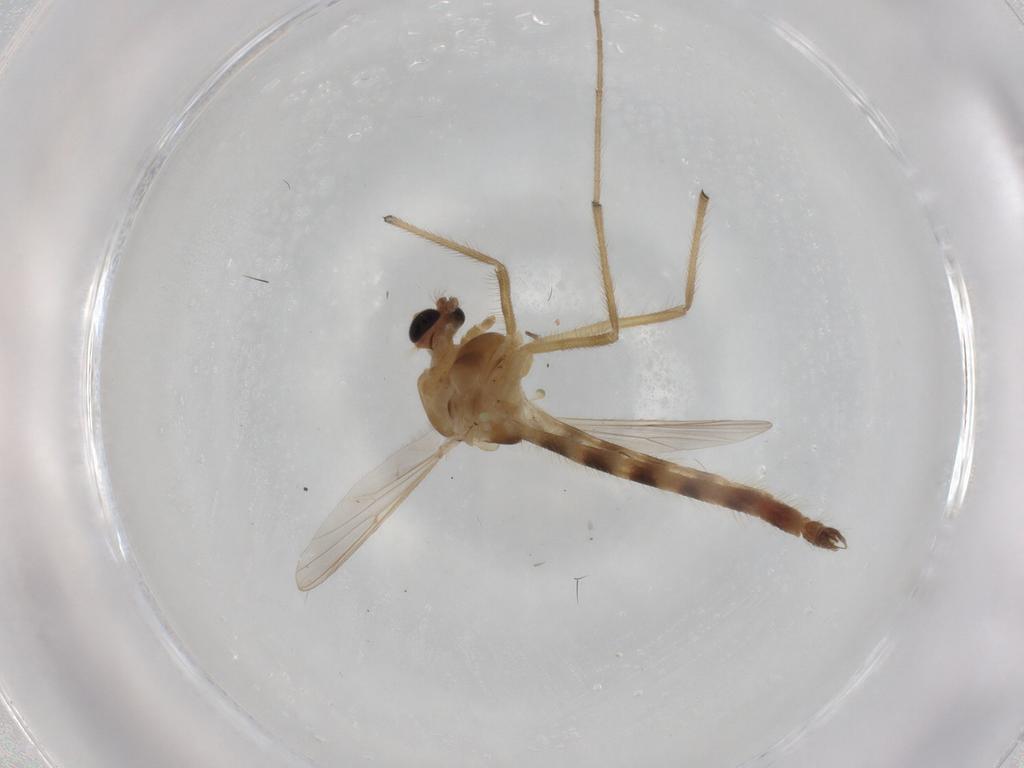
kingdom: Animalia
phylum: Arthropoda
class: Insecta
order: Diptera
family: Chironomidae
